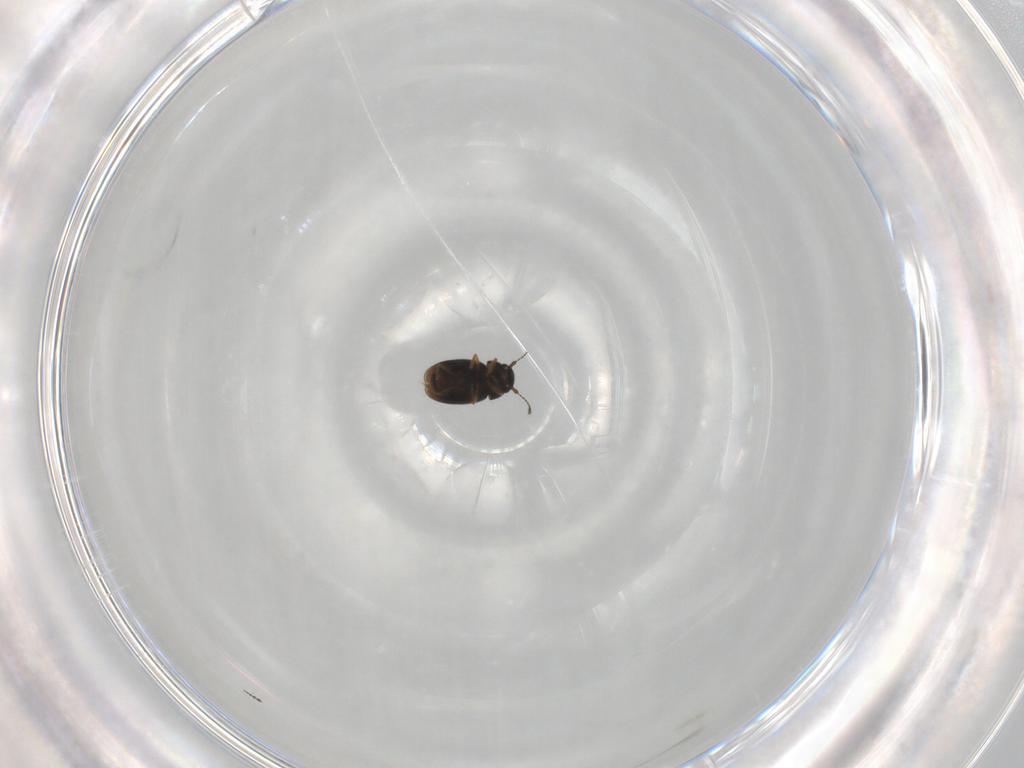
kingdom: Animalia
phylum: Arthropoda
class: Insecta
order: Coleoptera
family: Ptiliidae
